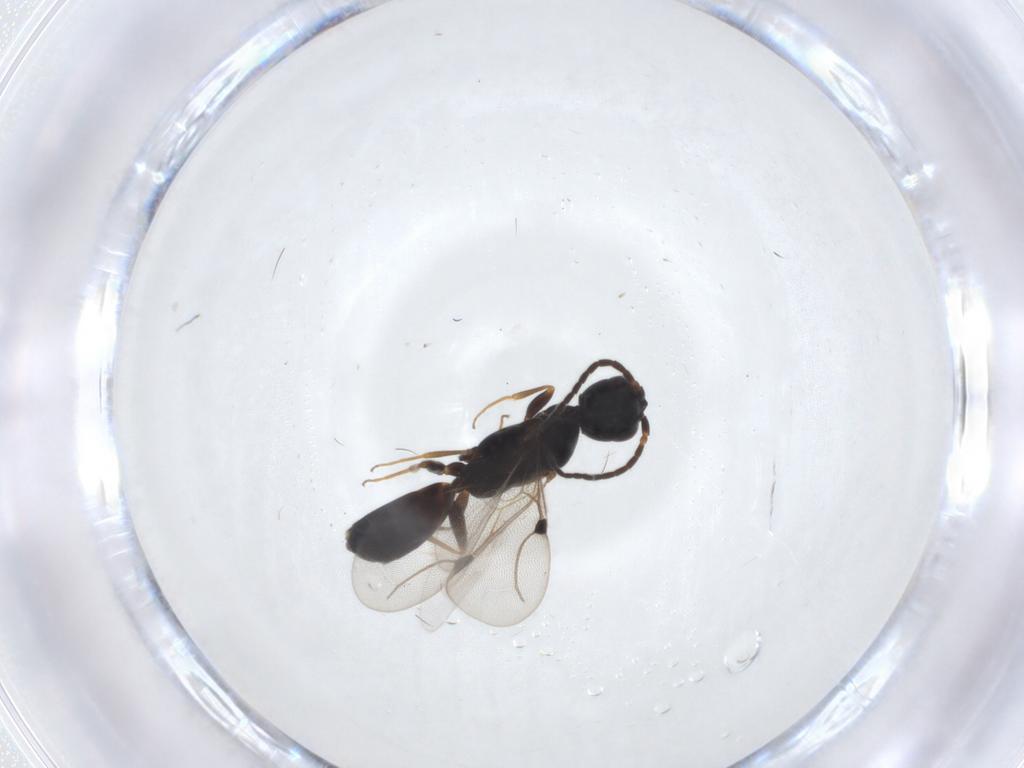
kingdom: Animalia
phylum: Arthropoda
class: Insecta
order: Hymenoptera
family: Bethylidae
